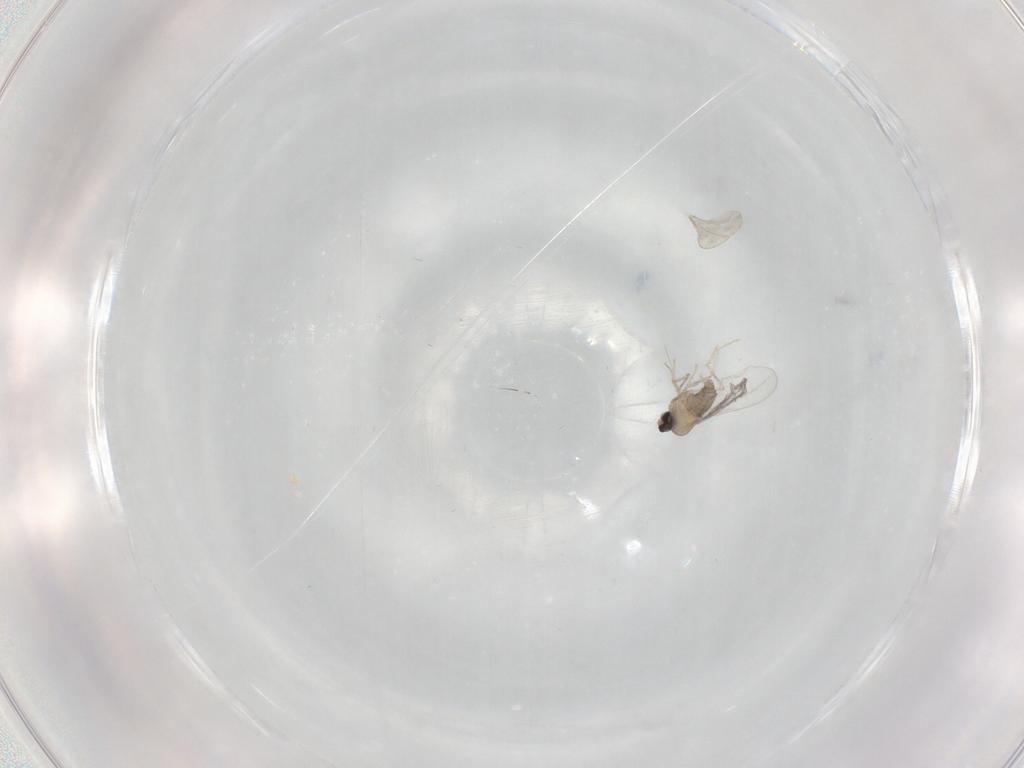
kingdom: Animalia
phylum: Arthropoda
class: Insecta
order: Diptera
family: Cecidomyiidae
